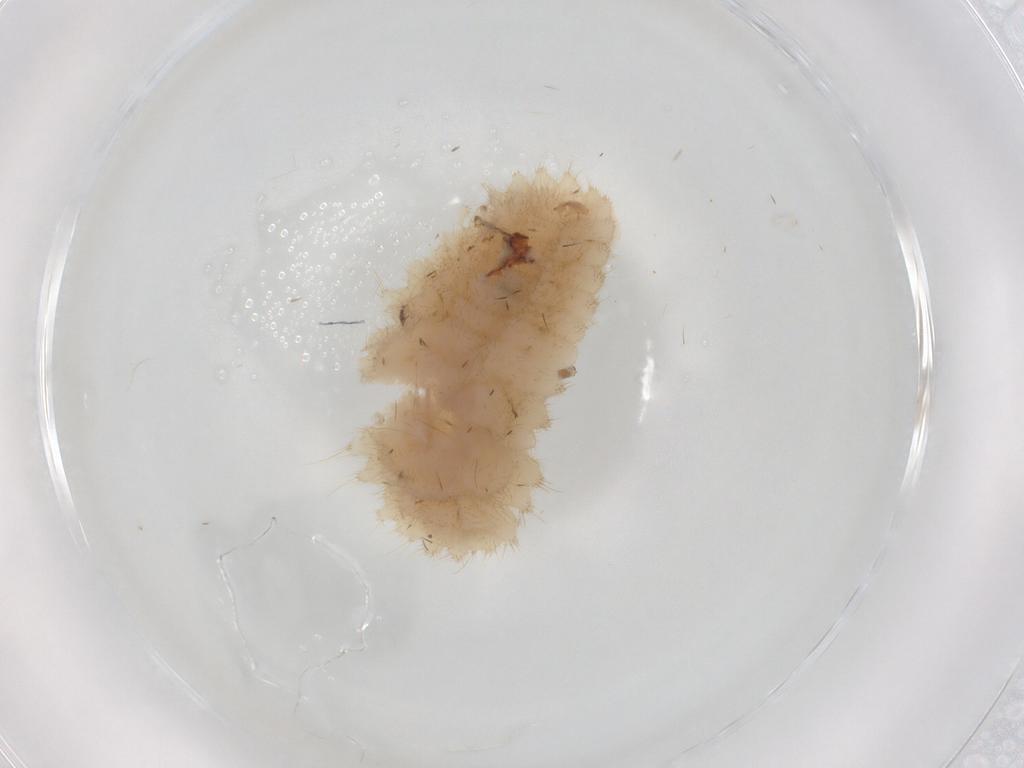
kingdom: Animalia
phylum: Arthropoda
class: Insecta
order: Coleoptera
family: Coccinellidae
